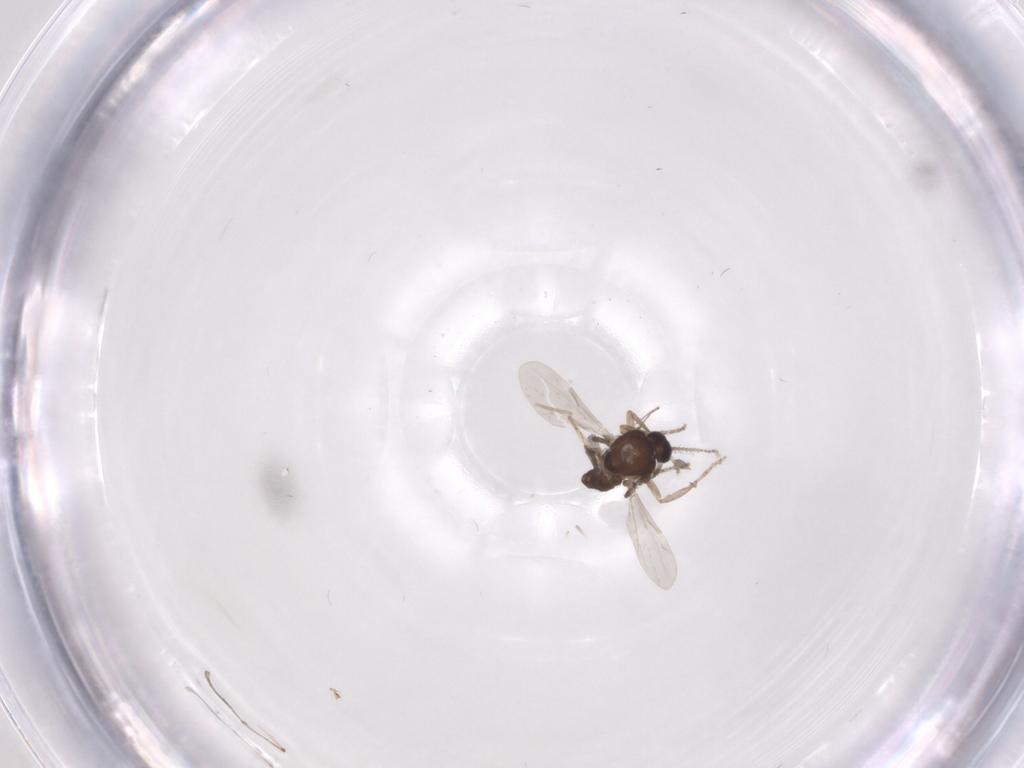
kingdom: Animalia
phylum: Arthropoda
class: Insecta
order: Diptera
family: Ceratopogonidae
